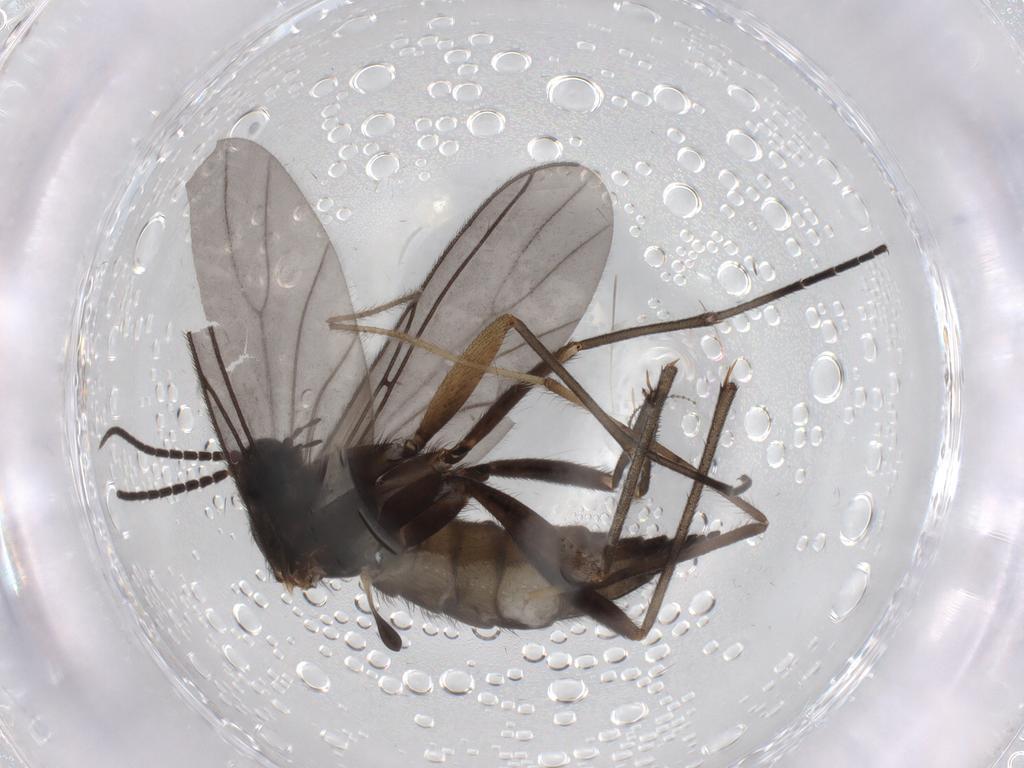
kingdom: Animalia
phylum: Arthropoda
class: Insecta
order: Diptera
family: Sciaridae
